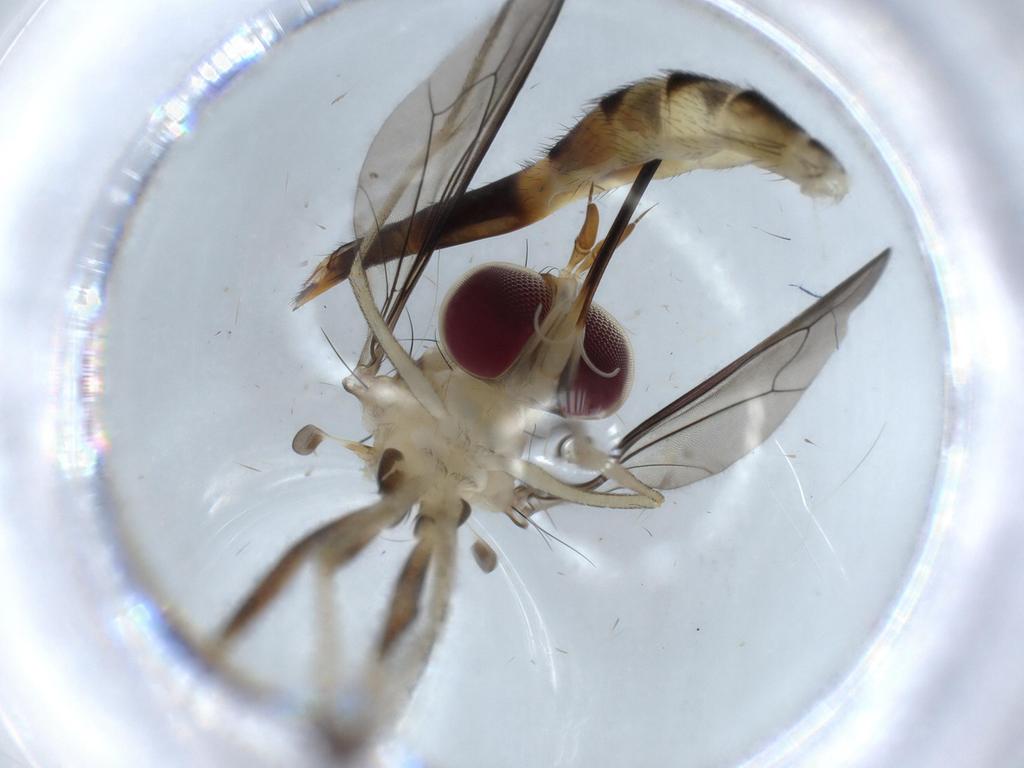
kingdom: Animalia
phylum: Arthropoda
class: Insecta
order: Diptera
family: Conopidae
